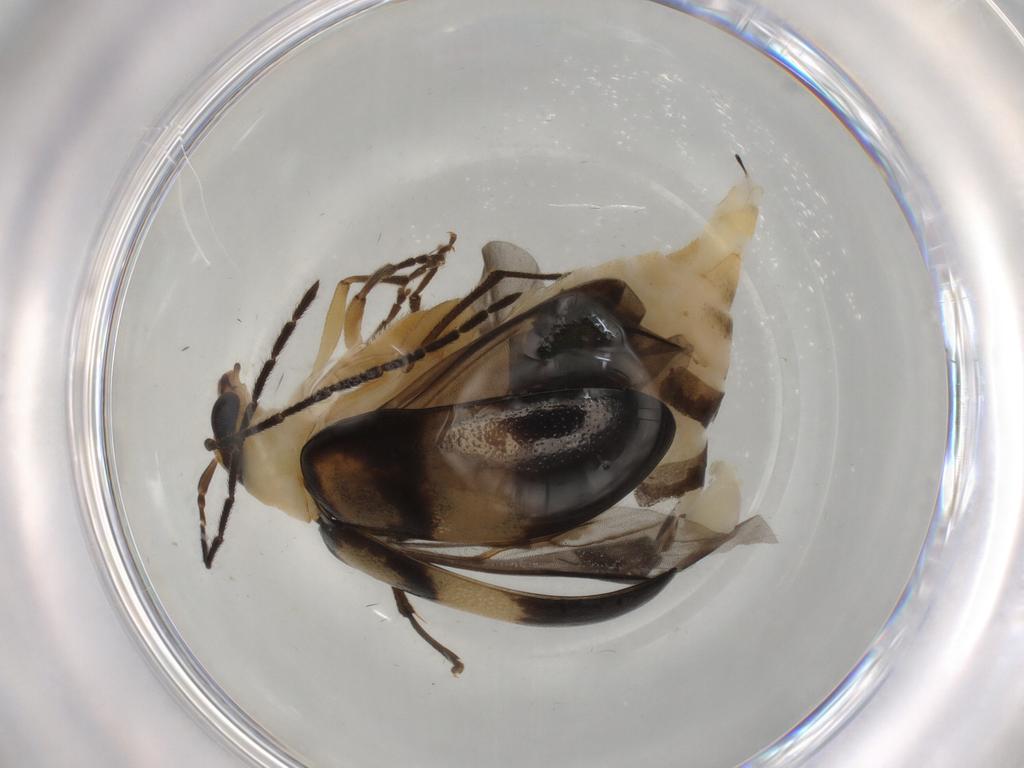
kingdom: Animalia
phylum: Arthropoda
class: Insecta
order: Coleoptera
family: Chrysomelidae
